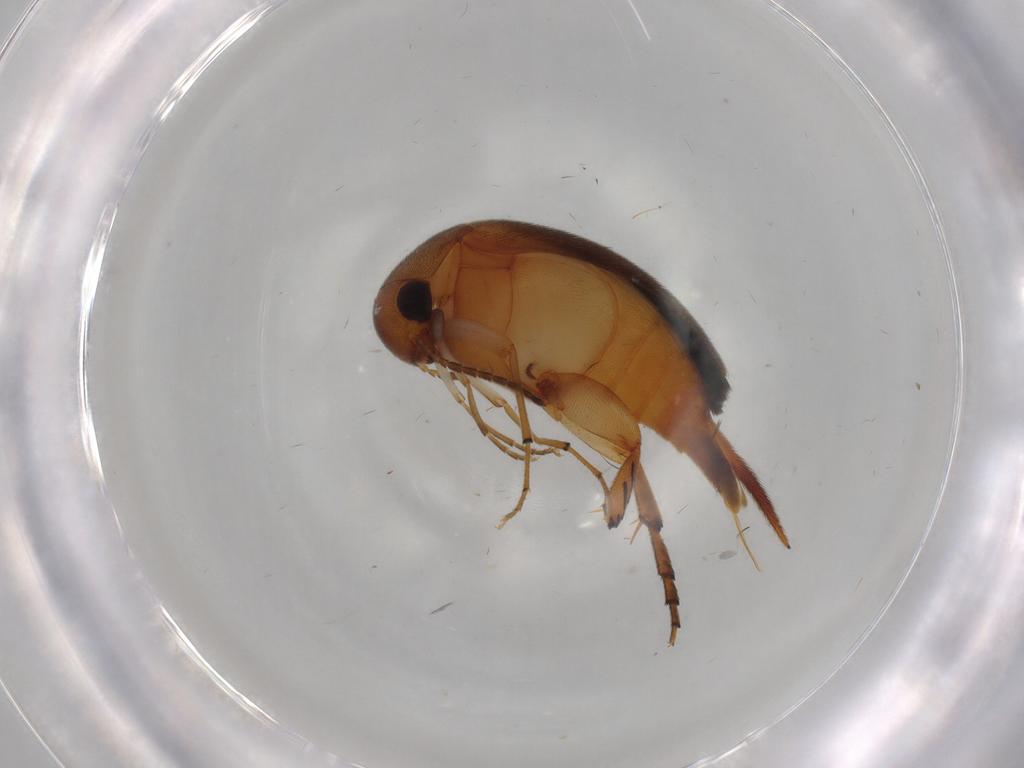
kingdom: Animalia
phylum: Arthropoda
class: Insecta
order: Coleoptera
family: Mordellidae
